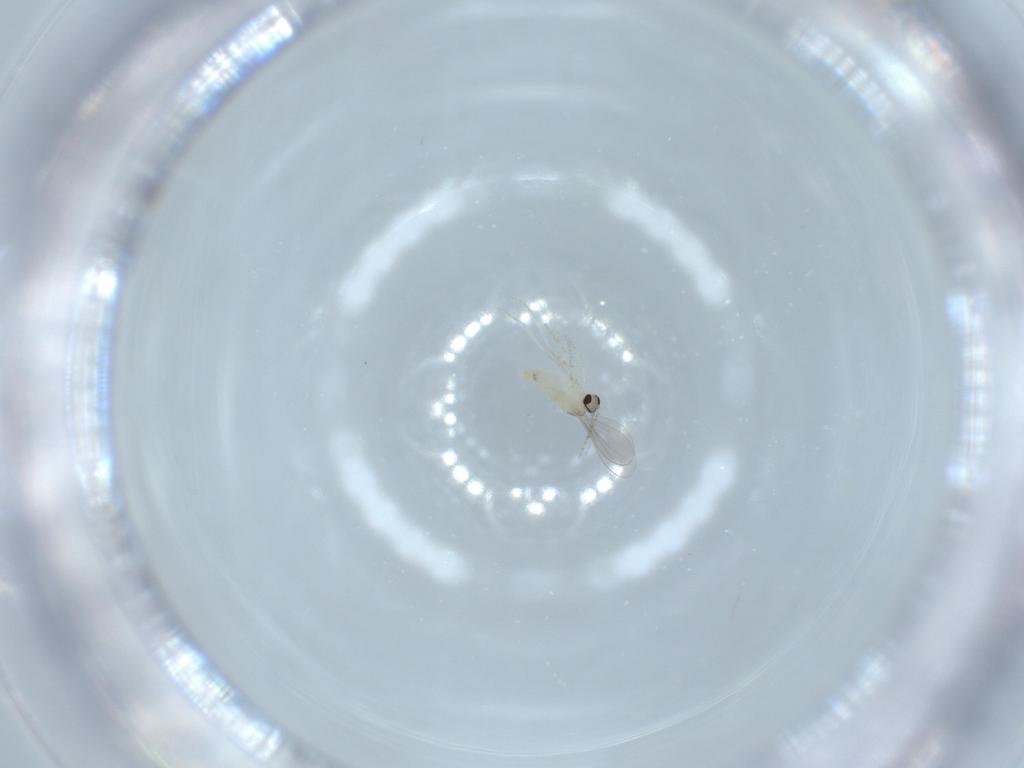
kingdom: Animalia
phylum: Arthropoda
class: Insecta
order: Diptera
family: Cecidomyiidae
